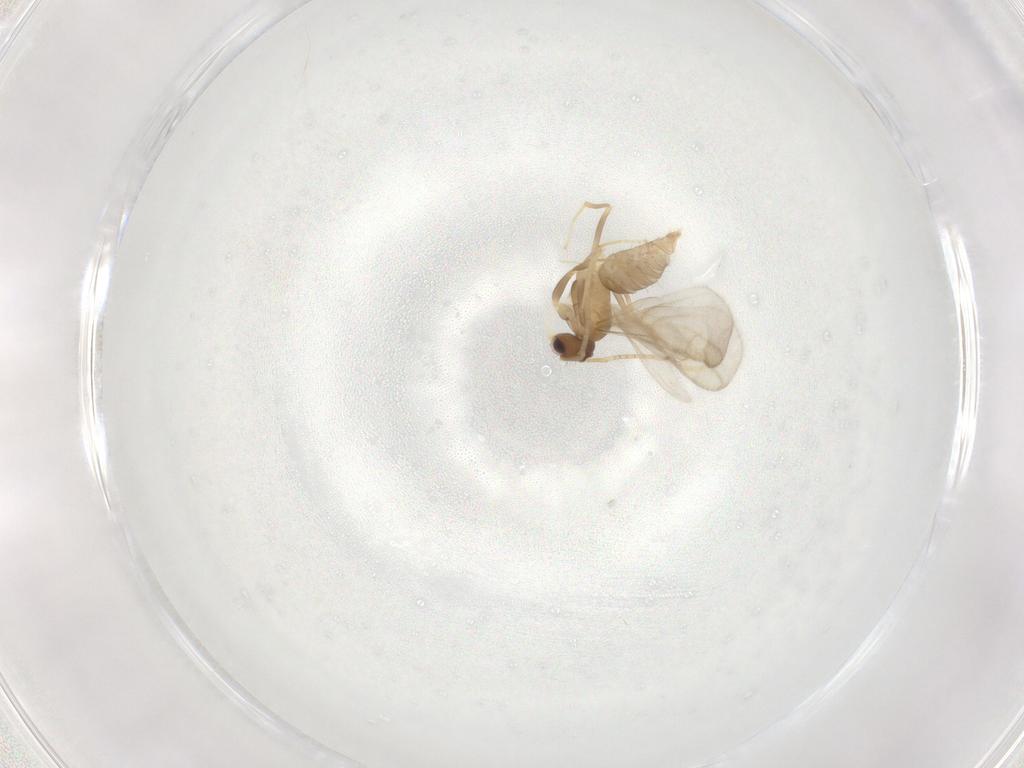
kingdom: Animalia
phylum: Arthropoda
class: Insecta
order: Hymenoptera
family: Formicidae
